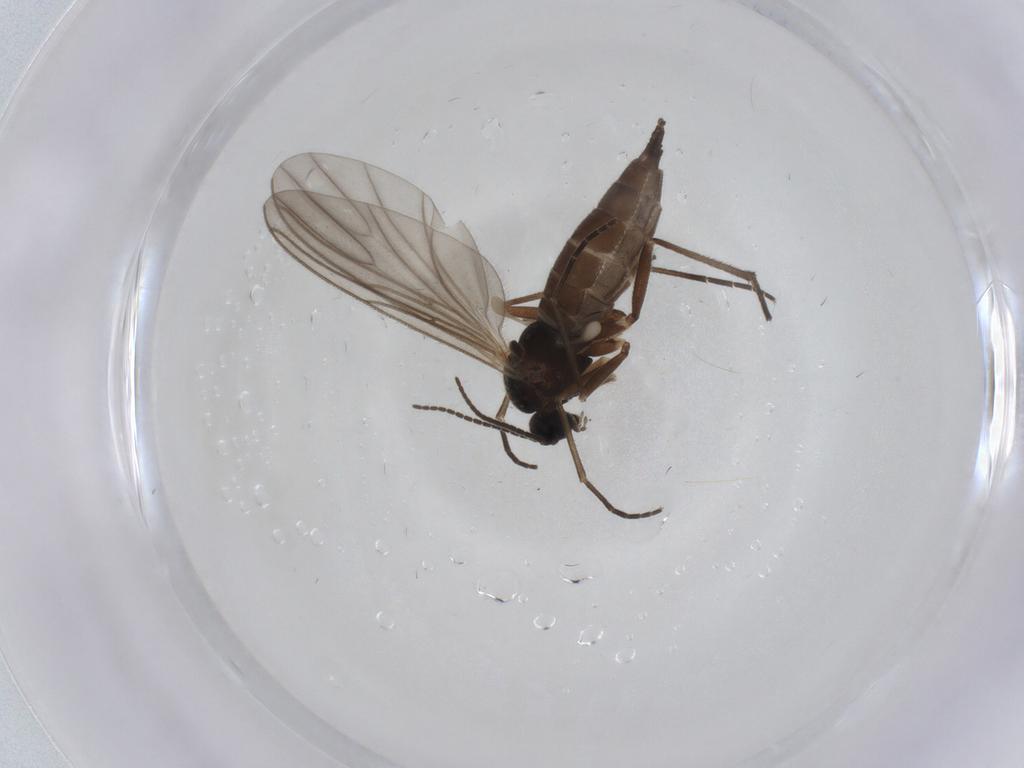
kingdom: Animalia
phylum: Arthropoda
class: Insecta
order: Diptera
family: Sciaridae
